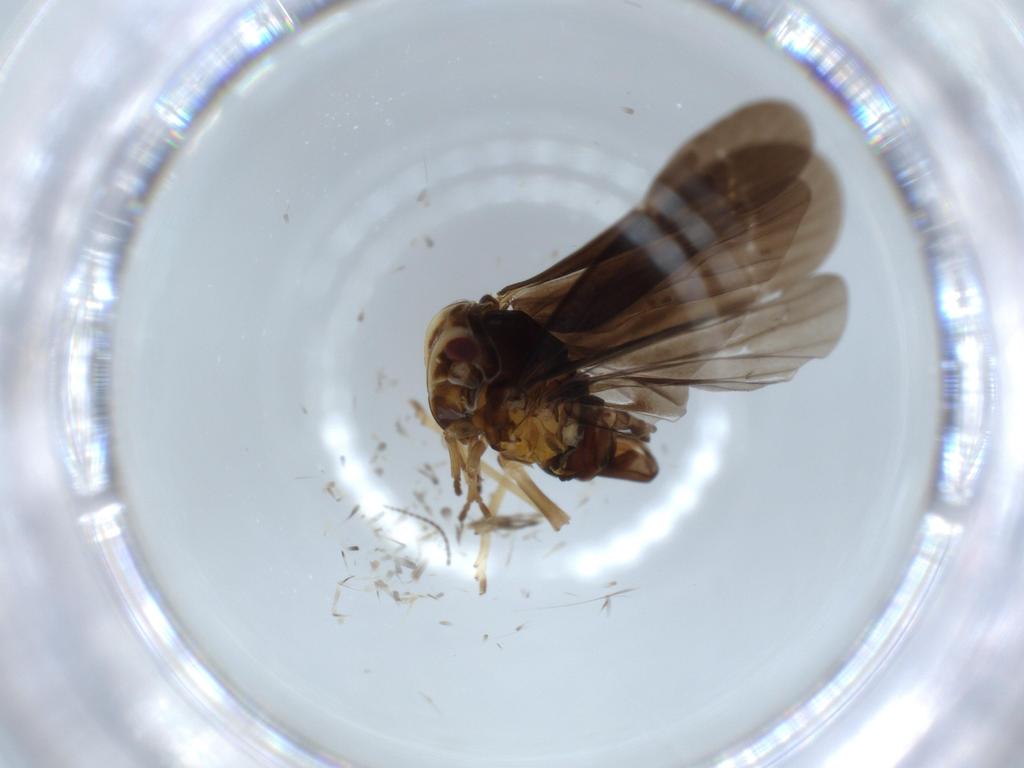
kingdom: Animalia
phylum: Arthropoda
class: Insecta
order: Hemiptera
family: Derbidae
